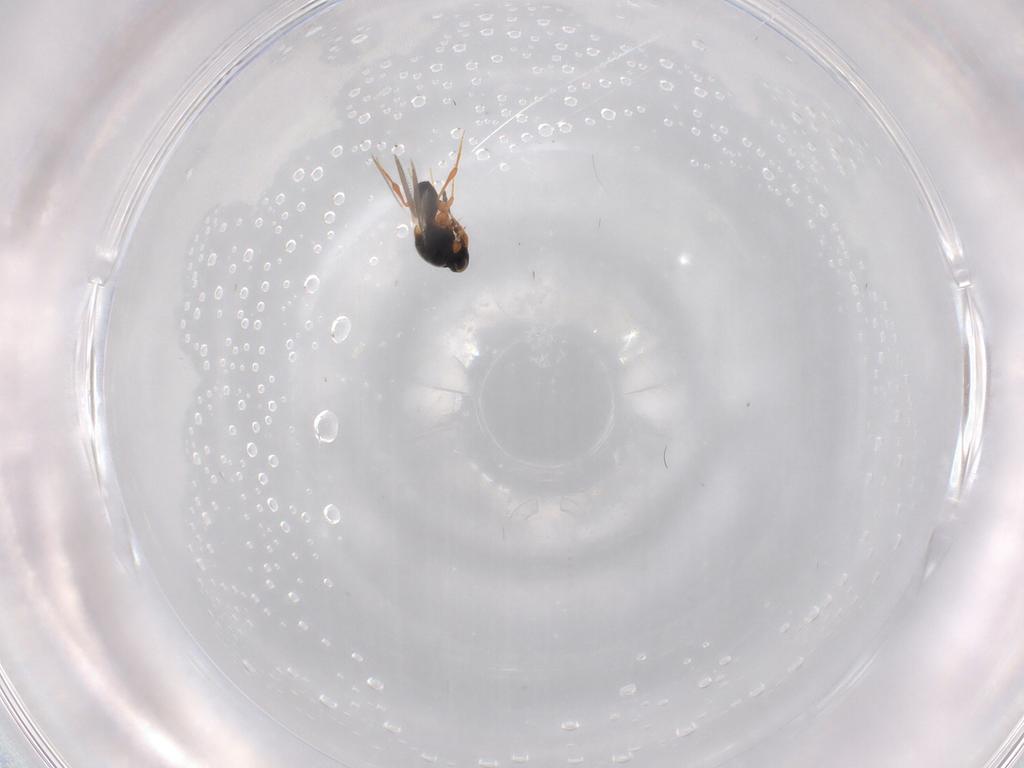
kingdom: Animalia
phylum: Arthropoda
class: Insecta
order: Hymenoptera
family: Platygastridae
